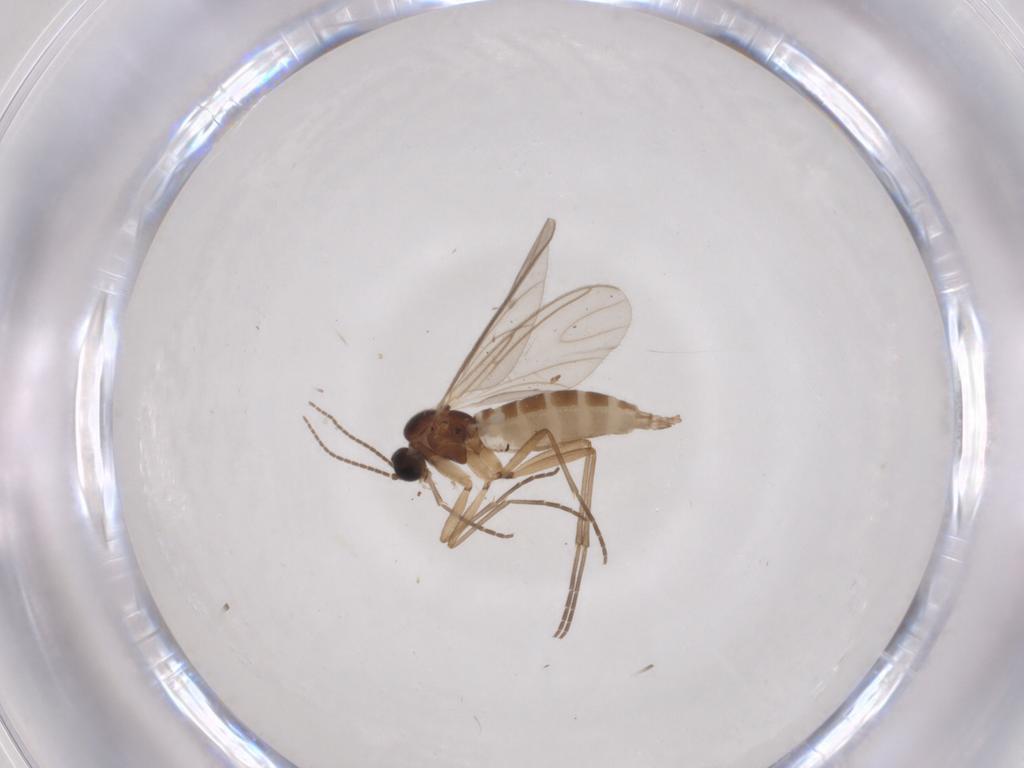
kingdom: Animalia
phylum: Arthropoda
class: Insecta
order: Diptera
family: Sciaridae
